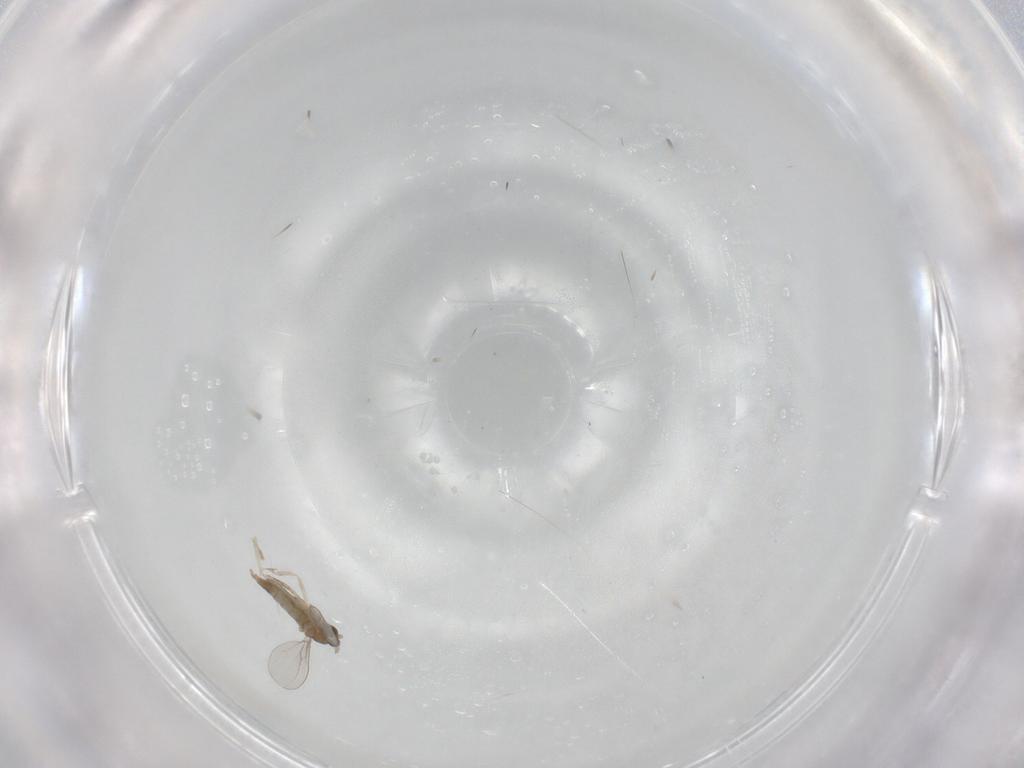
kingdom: Animalia
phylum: Arthropoda
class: Insecta
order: Diptera
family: Cecidomyiidae
